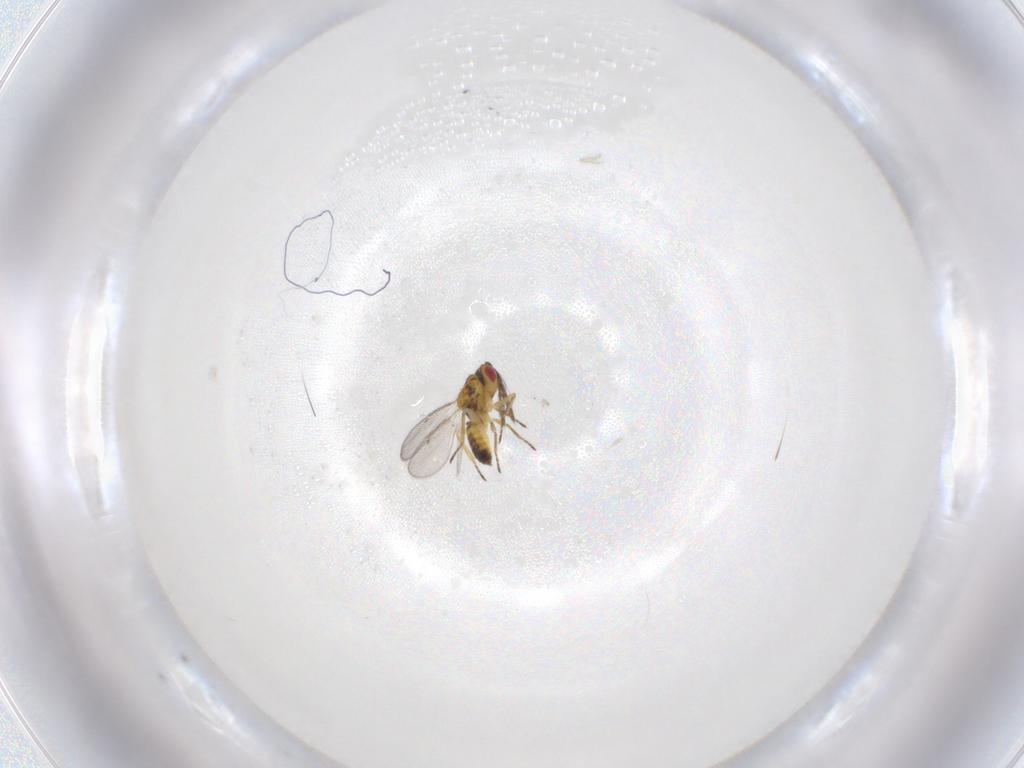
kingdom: Animalia
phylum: Arthropoda
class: Insecta
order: Hymenoptera
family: Eulophidae
